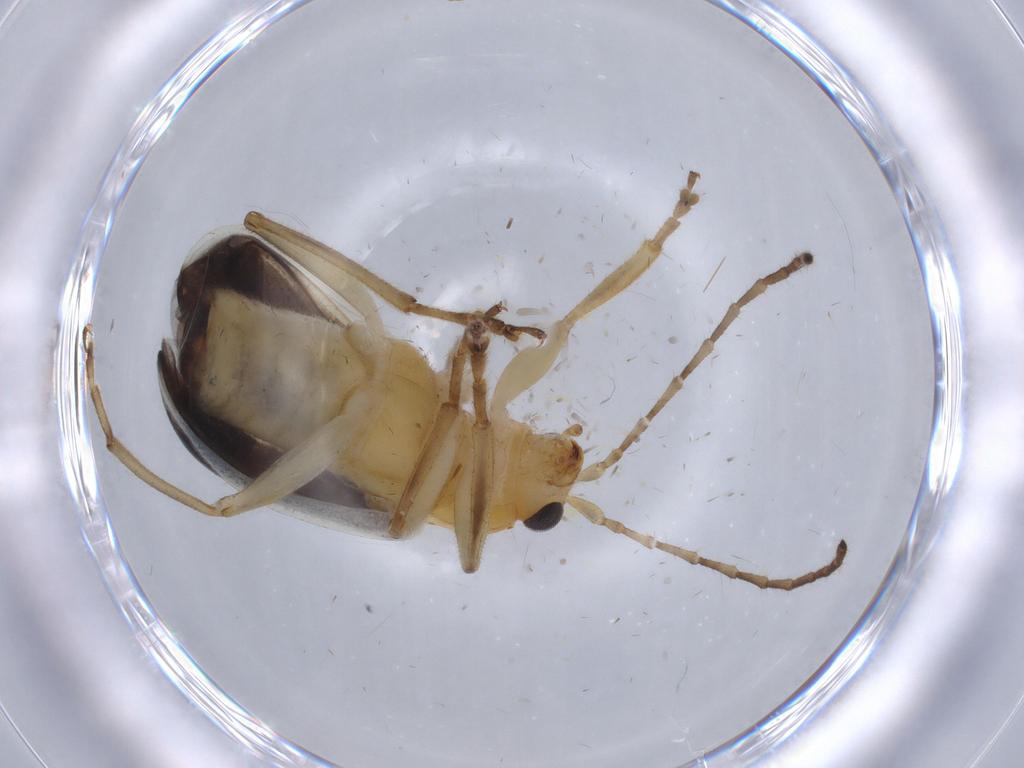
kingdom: Animalia
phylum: Arthropoda
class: Insecta
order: Coleoptera
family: Chrysomelidae
